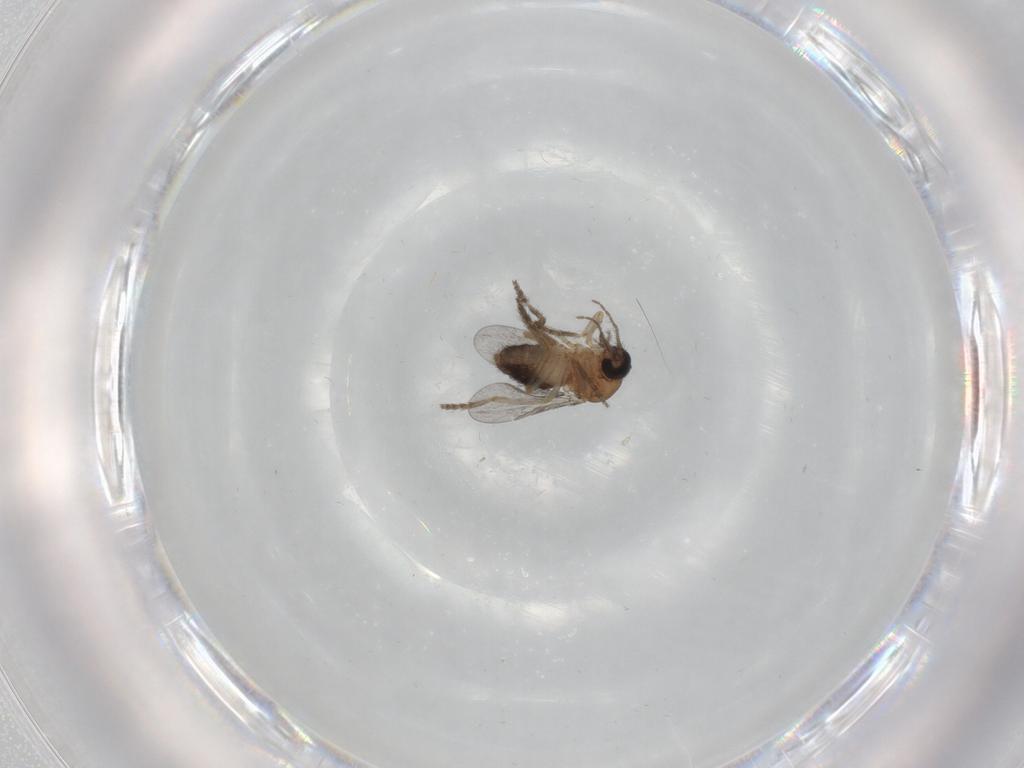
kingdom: Animalia
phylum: Arthropoda
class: Insecta
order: Diptera
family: Ceratopogonidae
